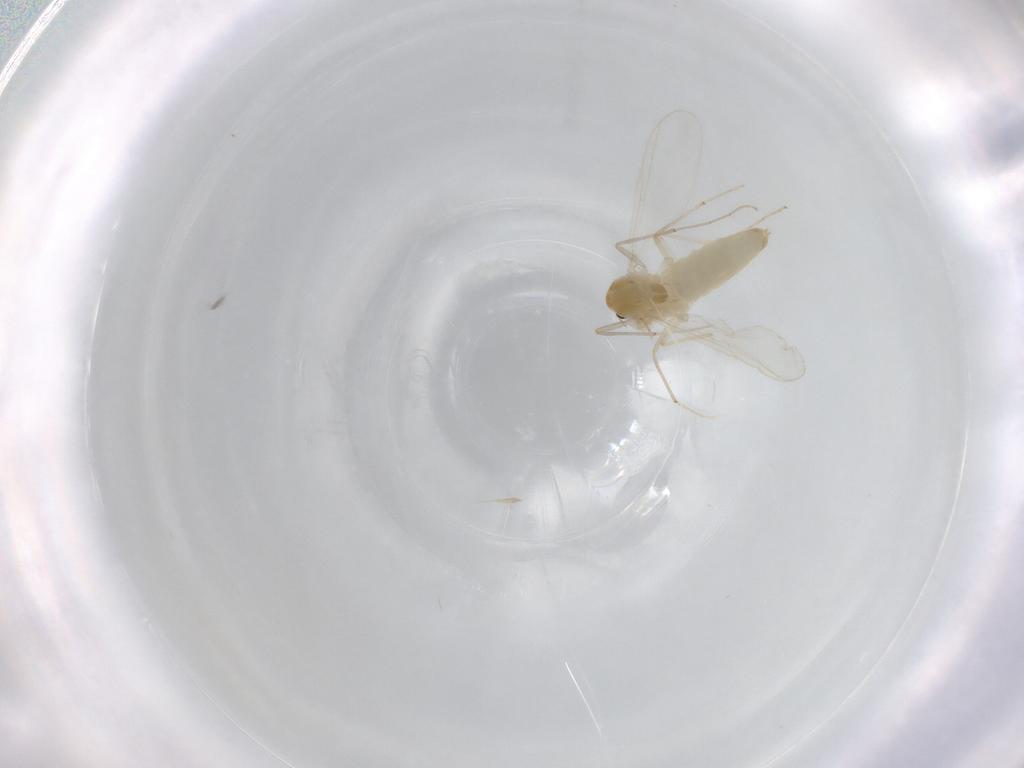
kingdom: Animalia
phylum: Arthropoda
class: Insecta
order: Diptera
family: Chironomidae
